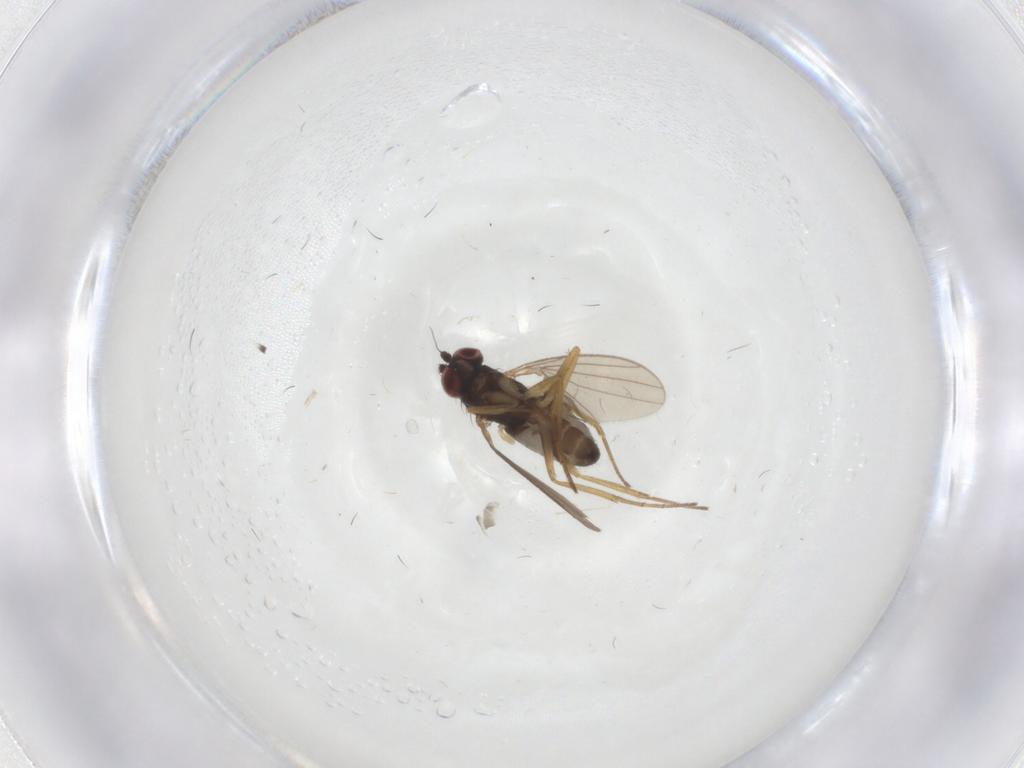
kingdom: Animalia
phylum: Arthropoda
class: Insecta
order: Diptera
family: Dolichopodidae
